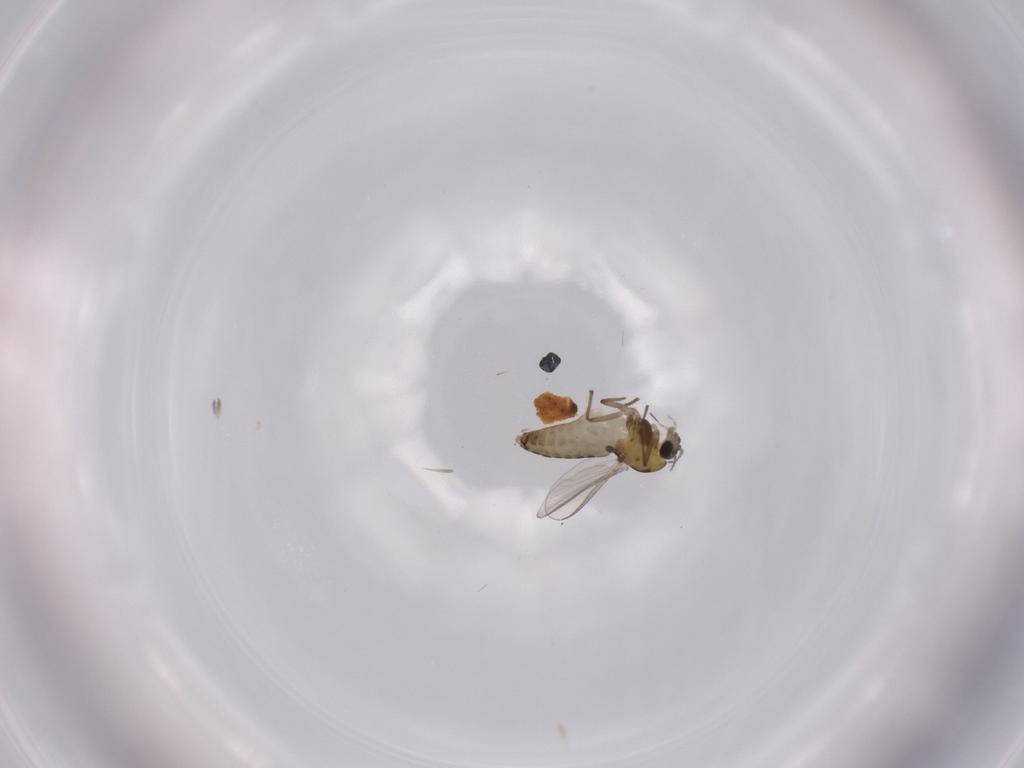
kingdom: Animalia
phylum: Arthropoda
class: Insecta
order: Diptera
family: Chironomidae
